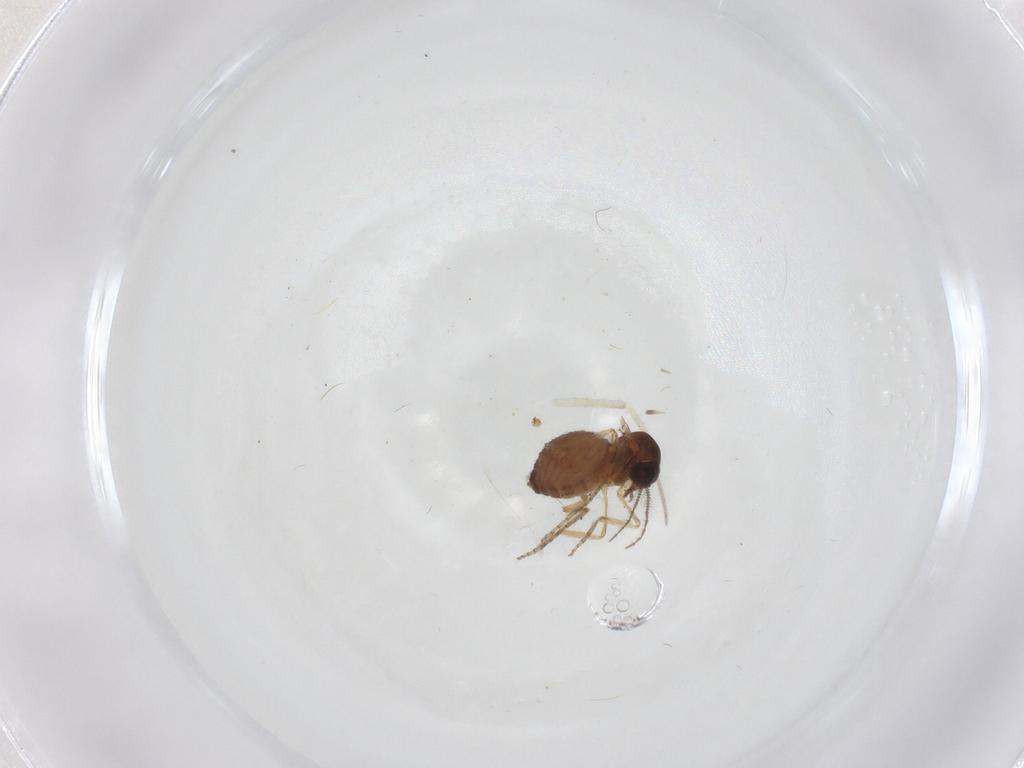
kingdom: Animalia
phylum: Arthropoda
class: Insecta
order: Diptera
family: Ceratopogonidae
